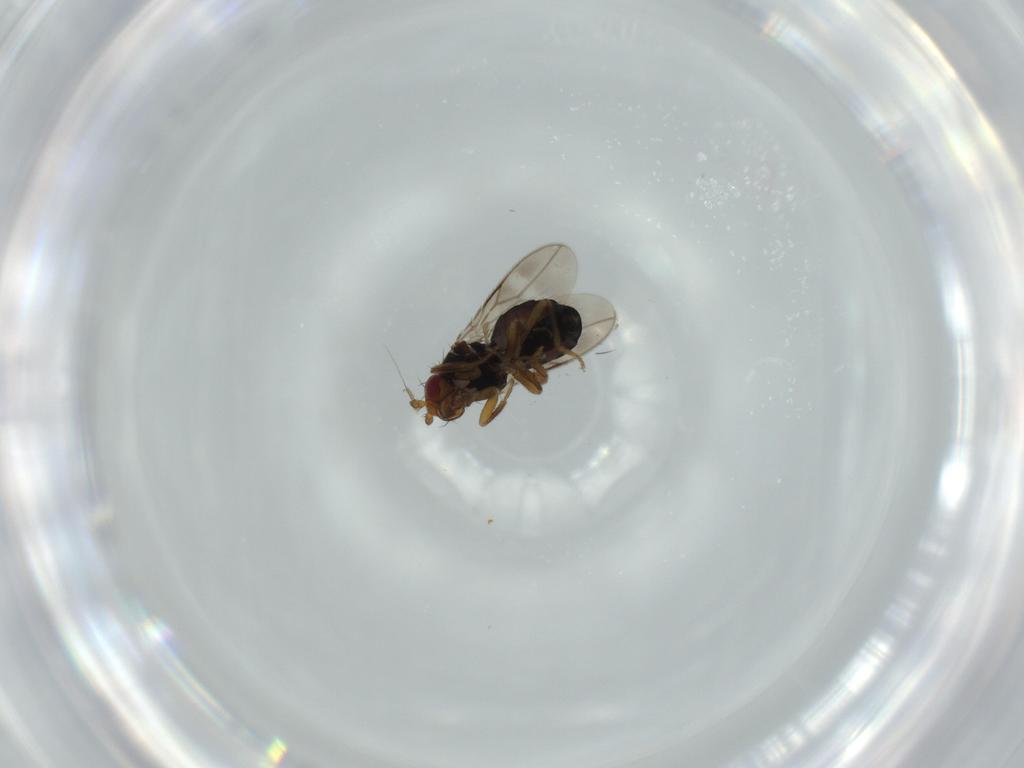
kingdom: Animalia
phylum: Arthropoda
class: Insecta
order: Diptera
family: Sphaeroceridae
